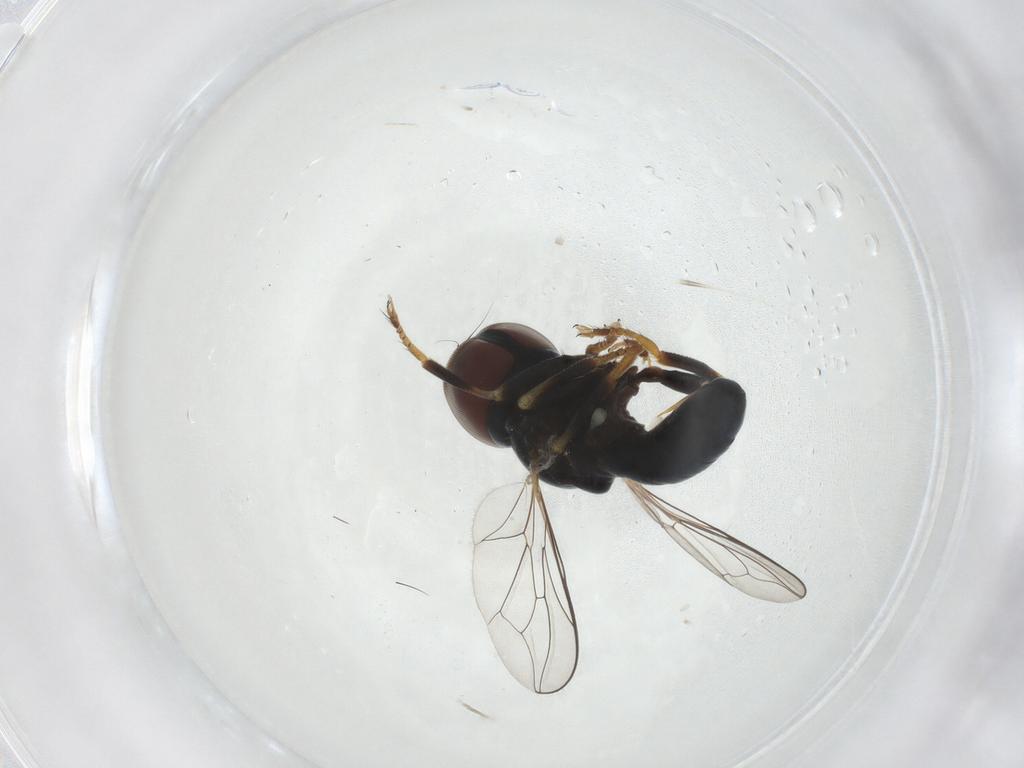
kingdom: Animalia
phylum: Arthropoda
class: Insecta
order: Diptera
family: Pipunculidae
